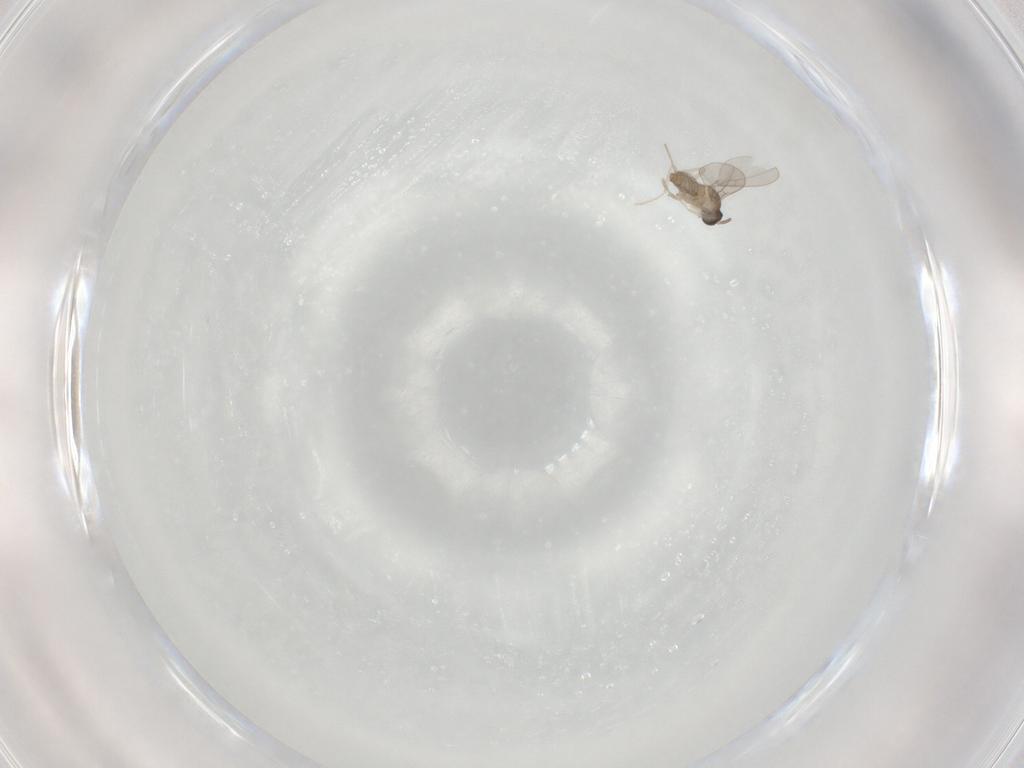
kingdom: Animalia
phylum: Arthropoda
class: Insecta
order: Diptera
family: Cecidomyiidae
